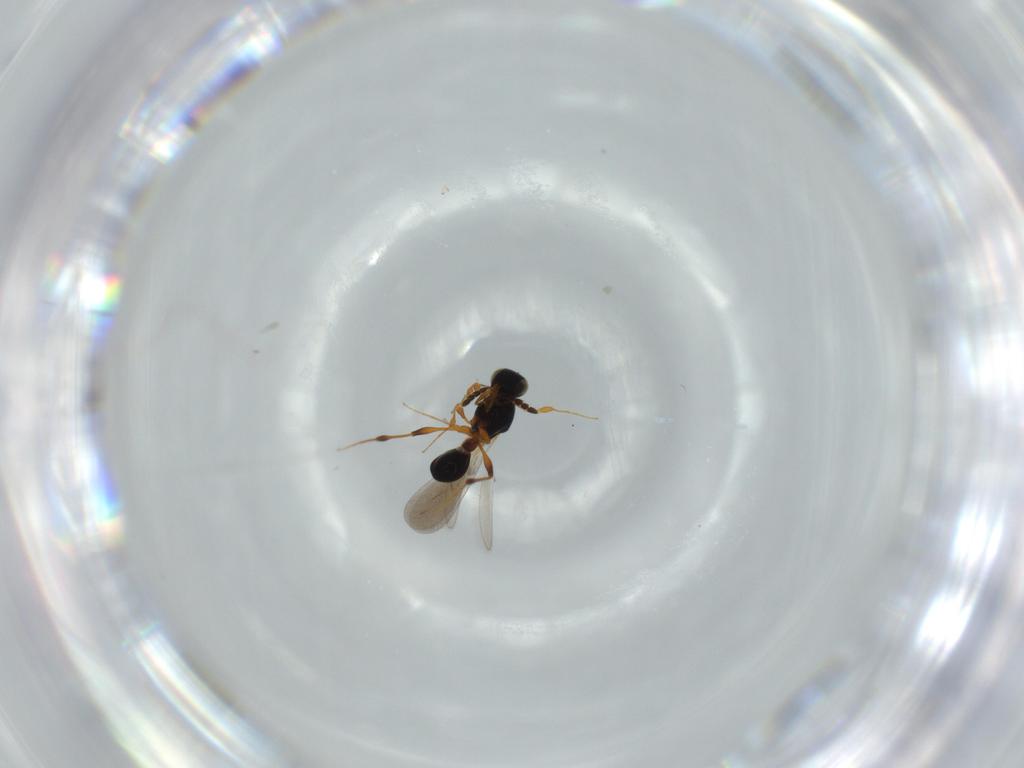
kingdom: Animalia
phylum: Arthropoda
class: Insecta
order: Hymenoptera
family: Platygastridae
